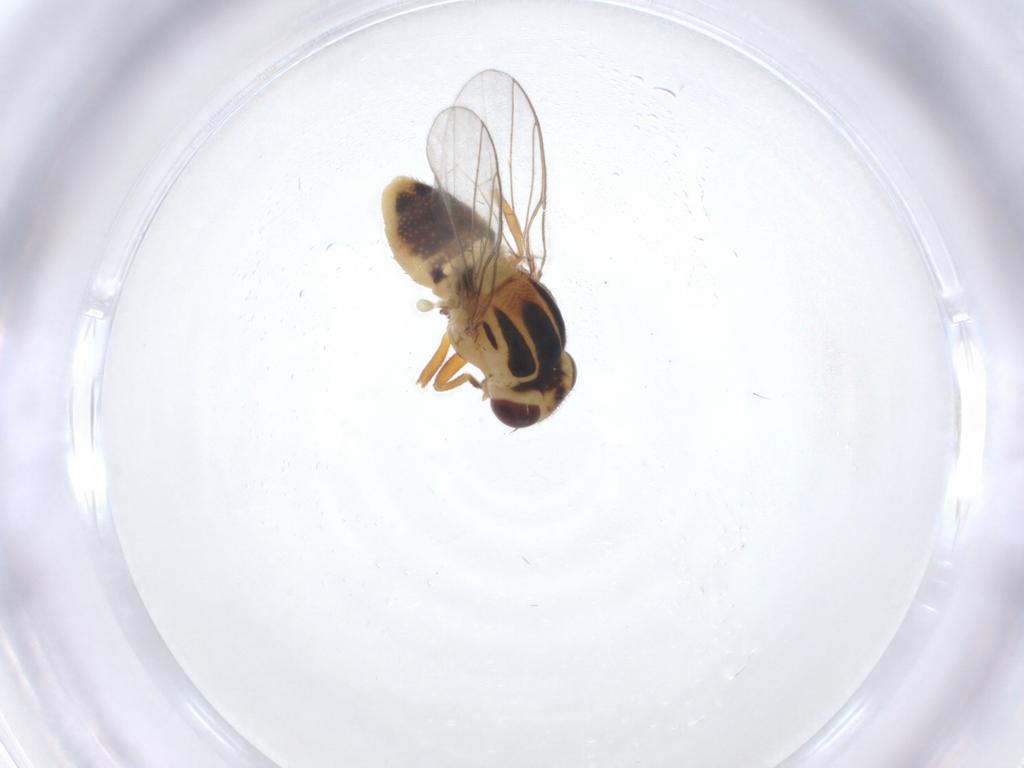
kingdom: Animalia
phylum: Arthropoda
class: Insecta
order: Diptera
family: Chloropidae
